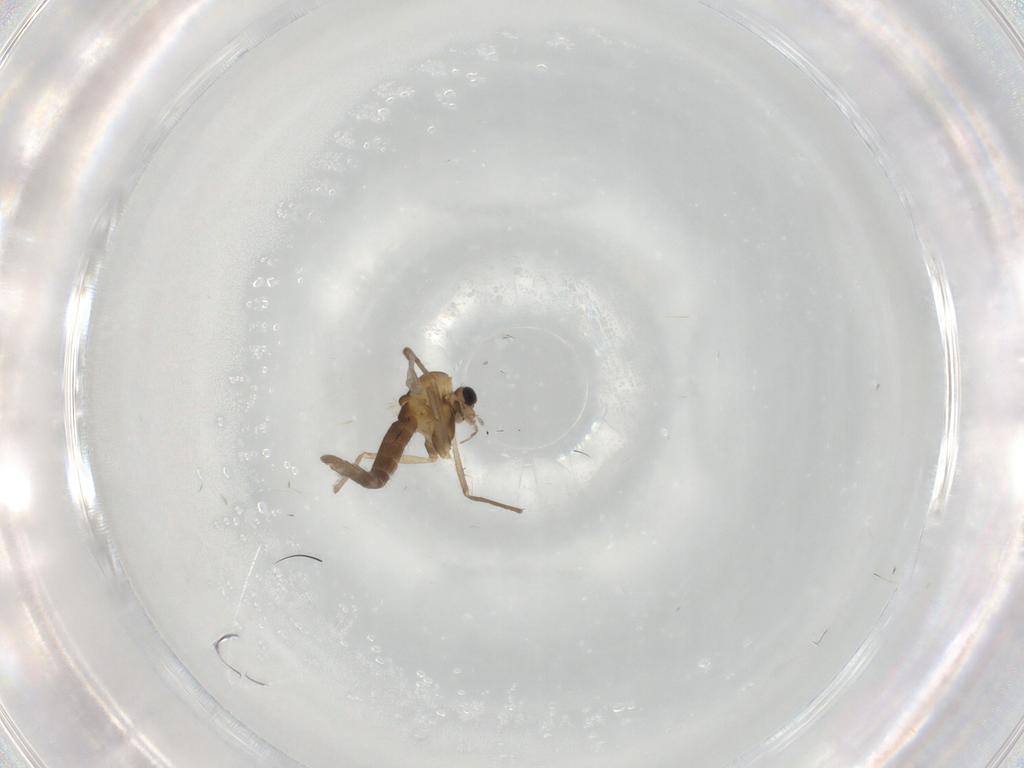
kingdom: Animalia
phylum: Arthropoda
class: Insecta
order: Diptera
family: Chironomidae
